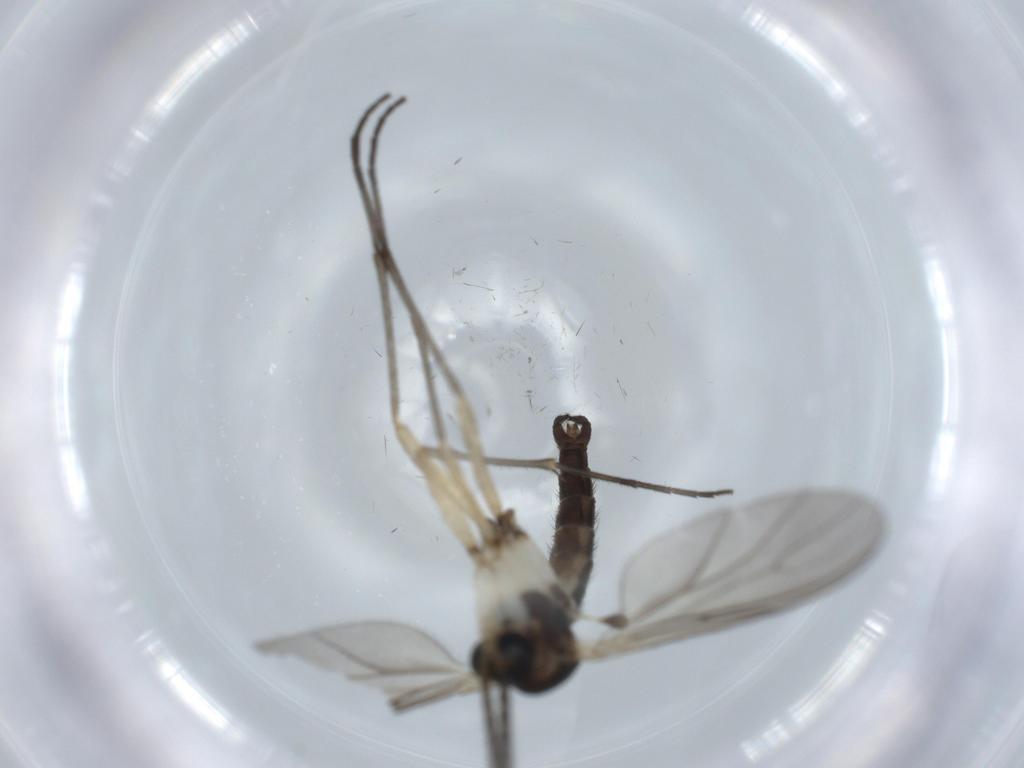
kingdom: Animalia
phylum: Arthropoda
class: Insecta
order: Diptera
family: Sciaridae
